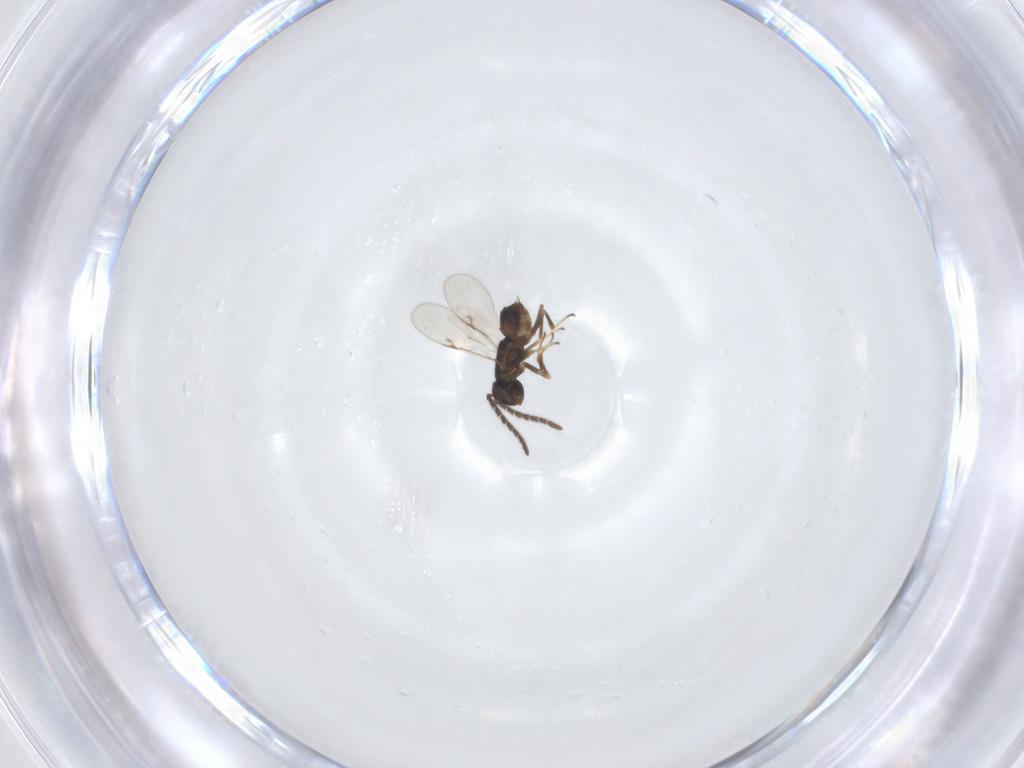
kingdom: Animalia
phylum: Arthropoda
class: Insecta
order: Hymenoptera
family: Encyrtidae
